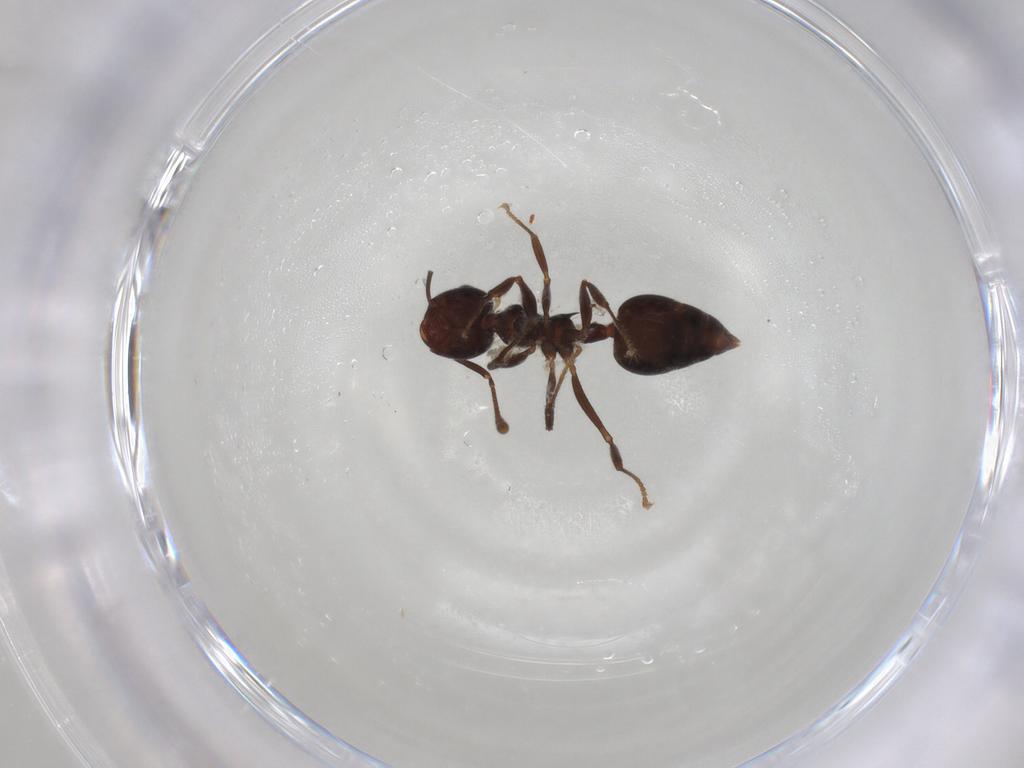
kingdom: Animalia
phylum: Arthropoda
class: Insecta
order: Hymenoptera
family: Formicidae
